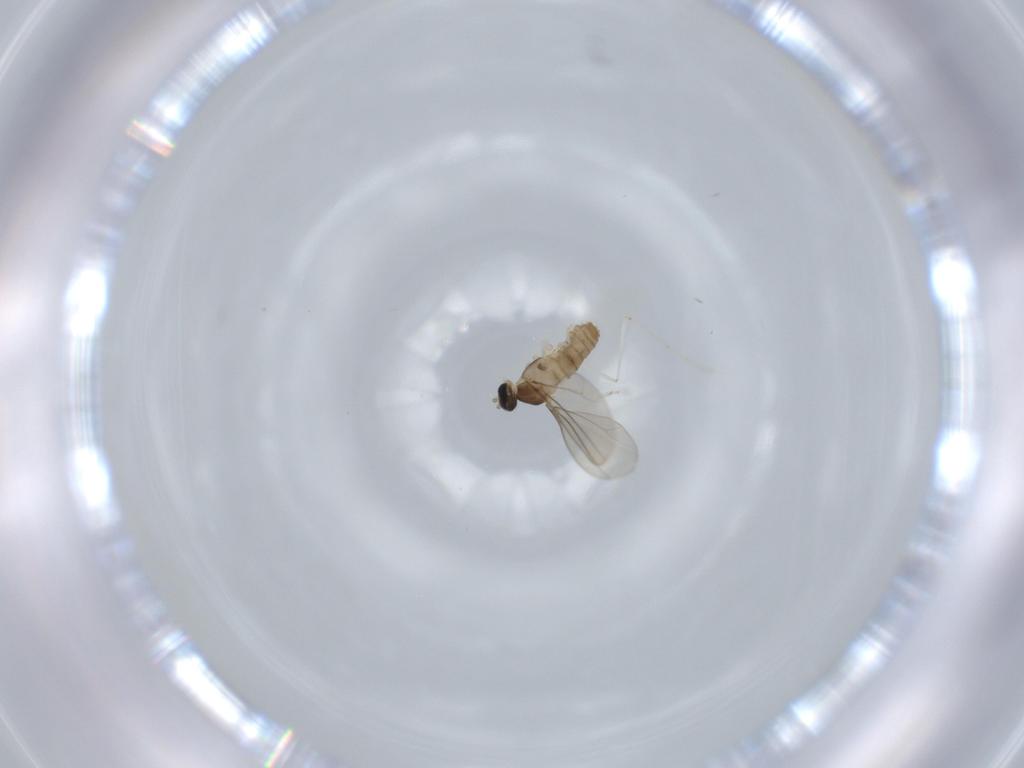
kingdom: Animalia
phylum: Arthropoda
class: Insecta
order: Diptera
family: Cecidomyiidae
